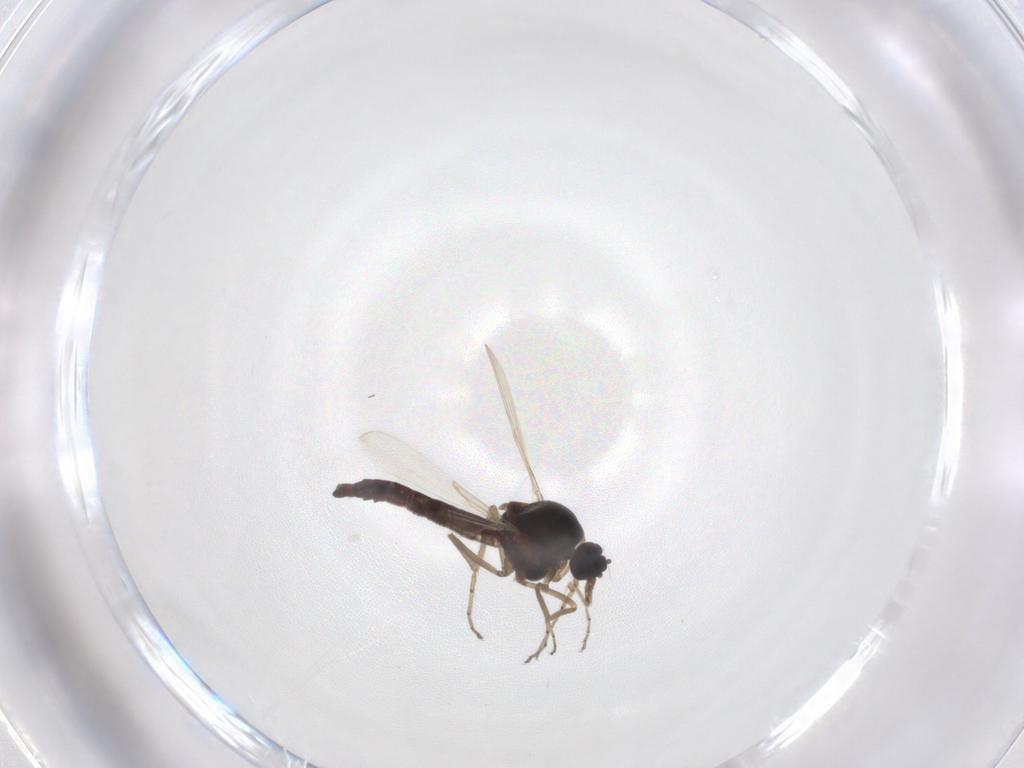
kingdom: Animalia
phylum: Arthropoda
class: Insecta
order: Diptera
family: Ceratopogonidae
